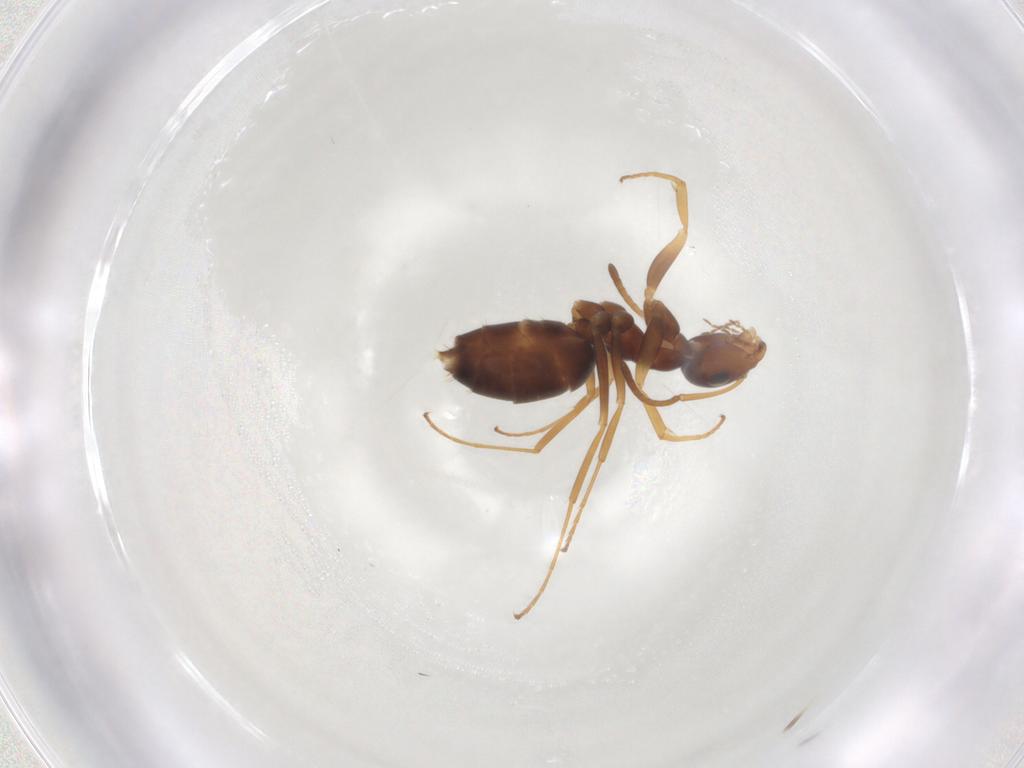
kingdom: Animalia
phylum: Arthropoda
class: Insecta
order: Hymenoptera
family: Formicidae
